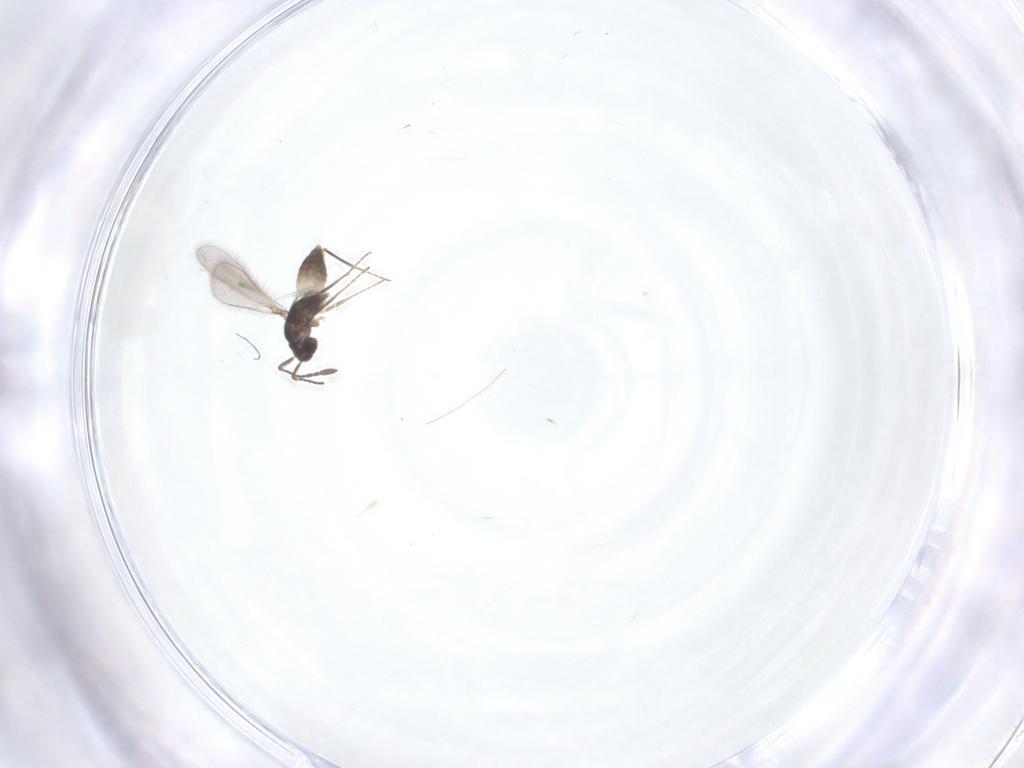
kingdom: Animalia
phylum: Arthropoda
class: Insecta
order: Hymenoptera
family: Mymaridae
